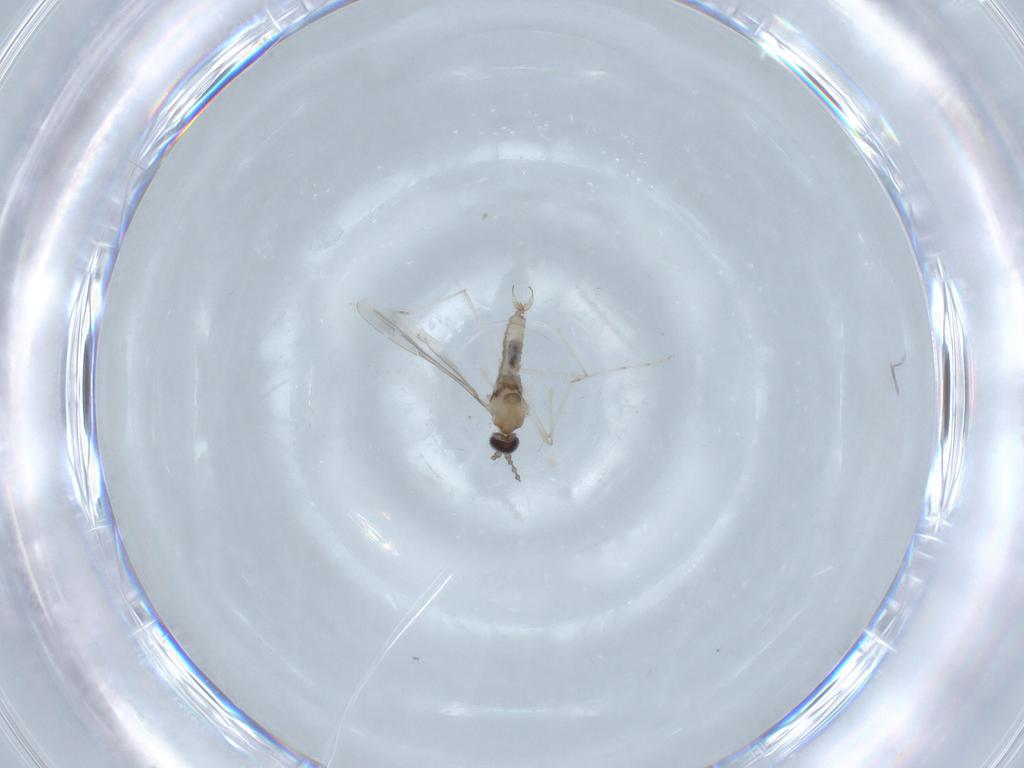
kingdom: Animalia
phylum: Arthropoda
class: Insecta
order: Diptera
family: Cecidomyiidae
